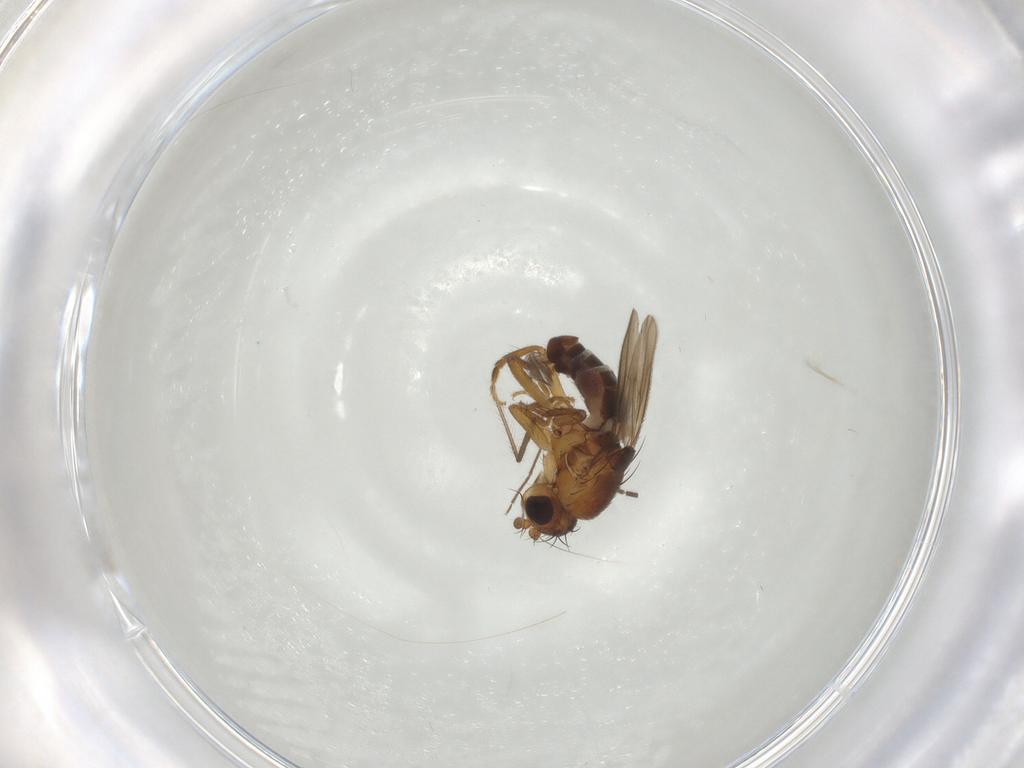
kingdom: Animalia
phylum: Arthropoda
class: Insecta
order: Diptera
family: Sphaeroceridae
